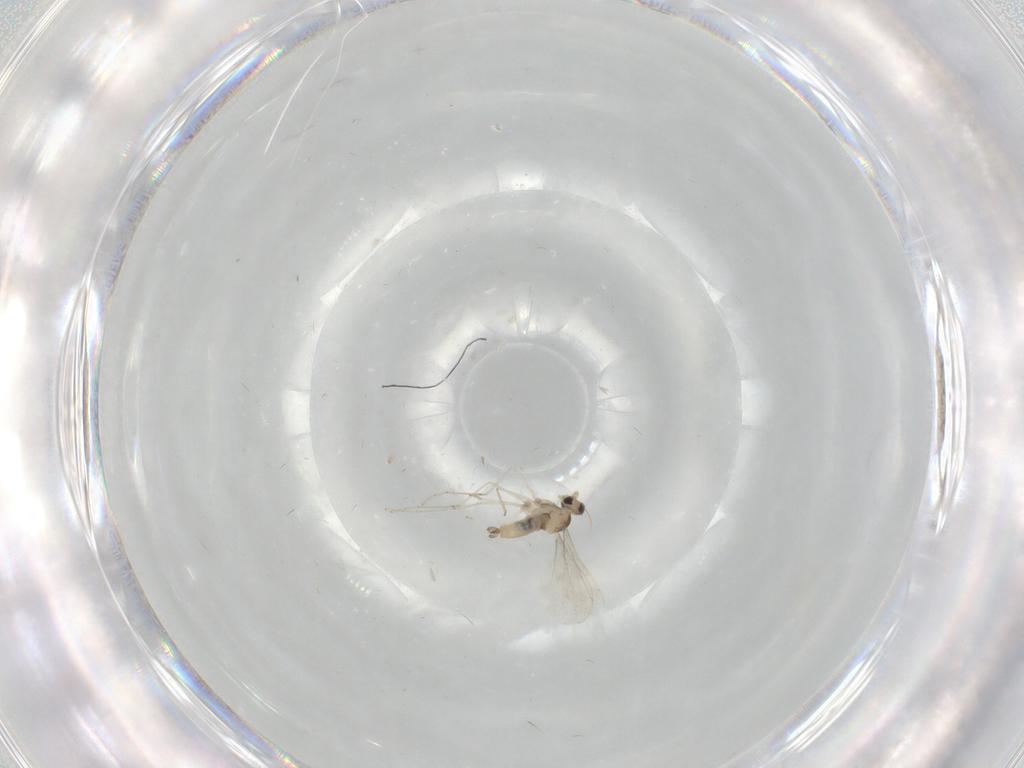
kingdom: Animalia
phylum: Arthropoda
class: Insecta
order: Diptera
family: Cecidomyiidae
